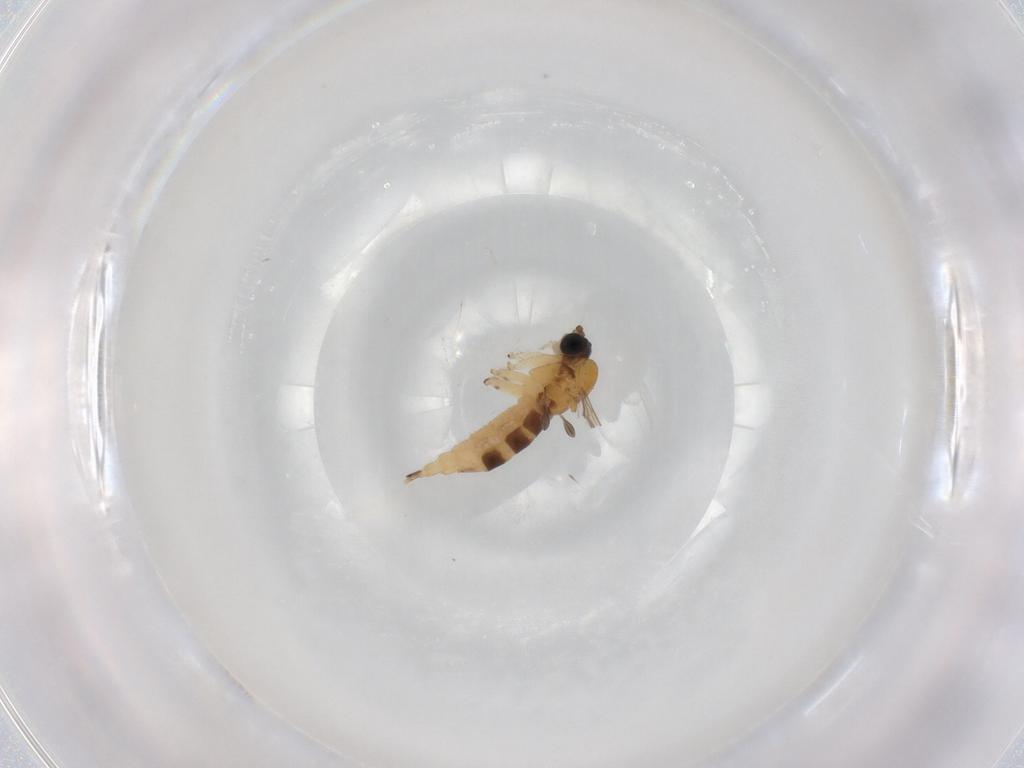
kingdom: Animalia
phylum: Arthropoda
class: Insecta
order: Diptera
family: Sciaridae
